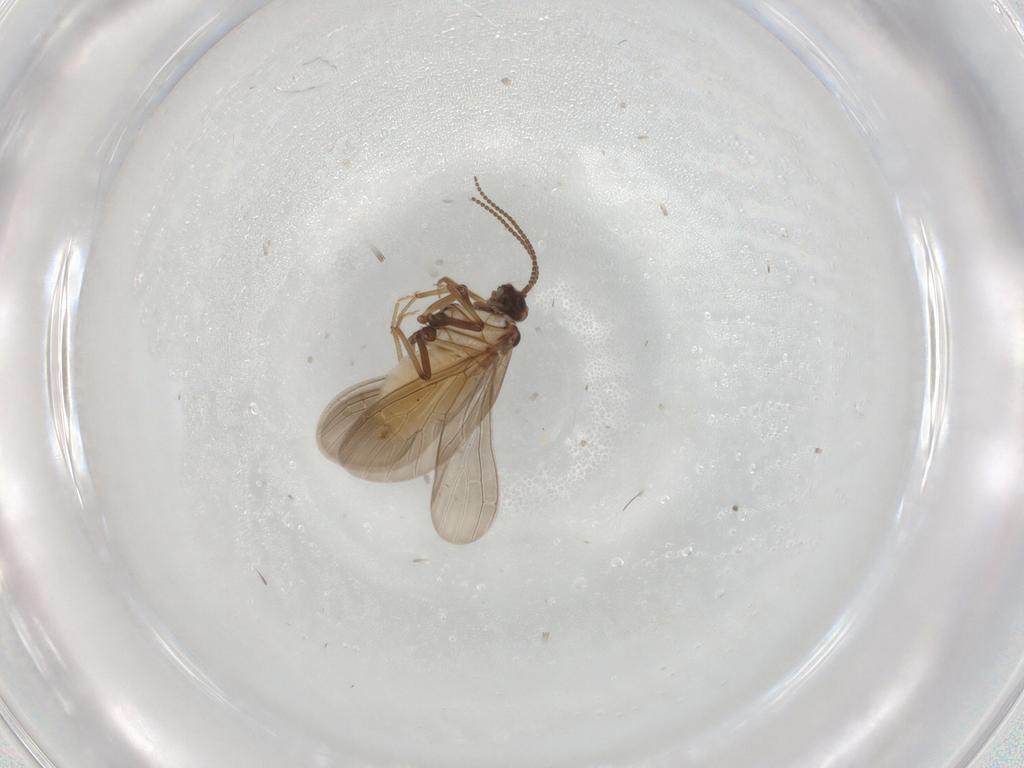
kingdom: Animalia
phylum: Arthropoda
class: Insecta
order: Neuroptera
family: Coniopterygidae
